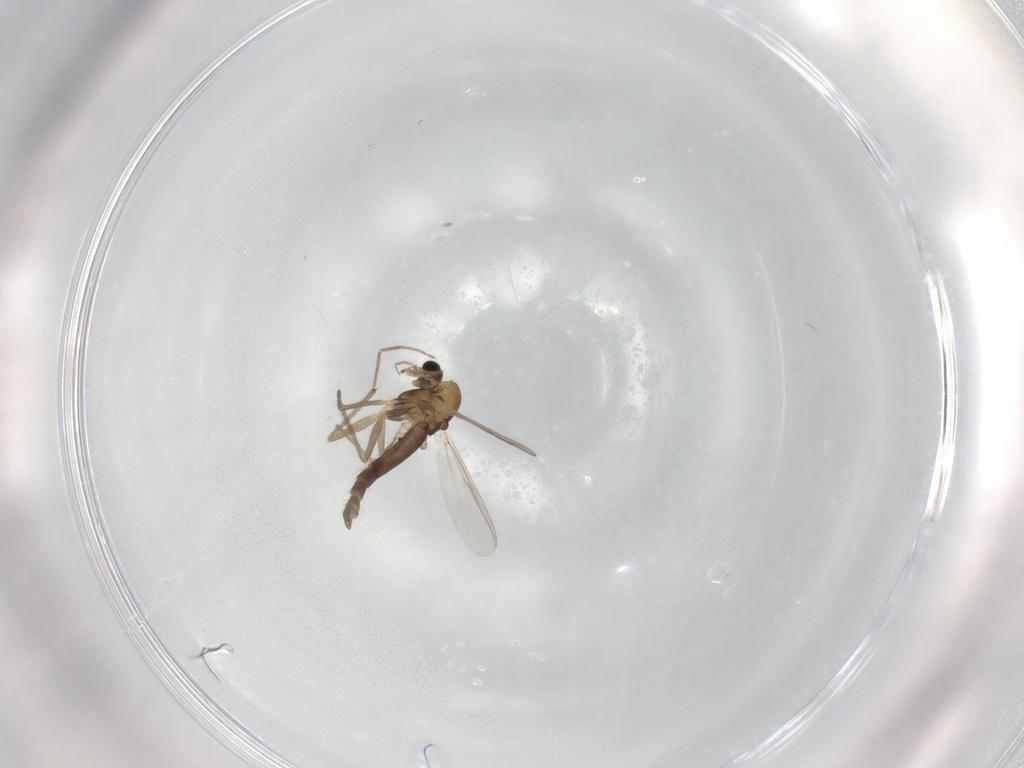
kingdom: Animalia
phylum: Arthropoda
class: Insecta
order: Diptera
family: Chironomidae
